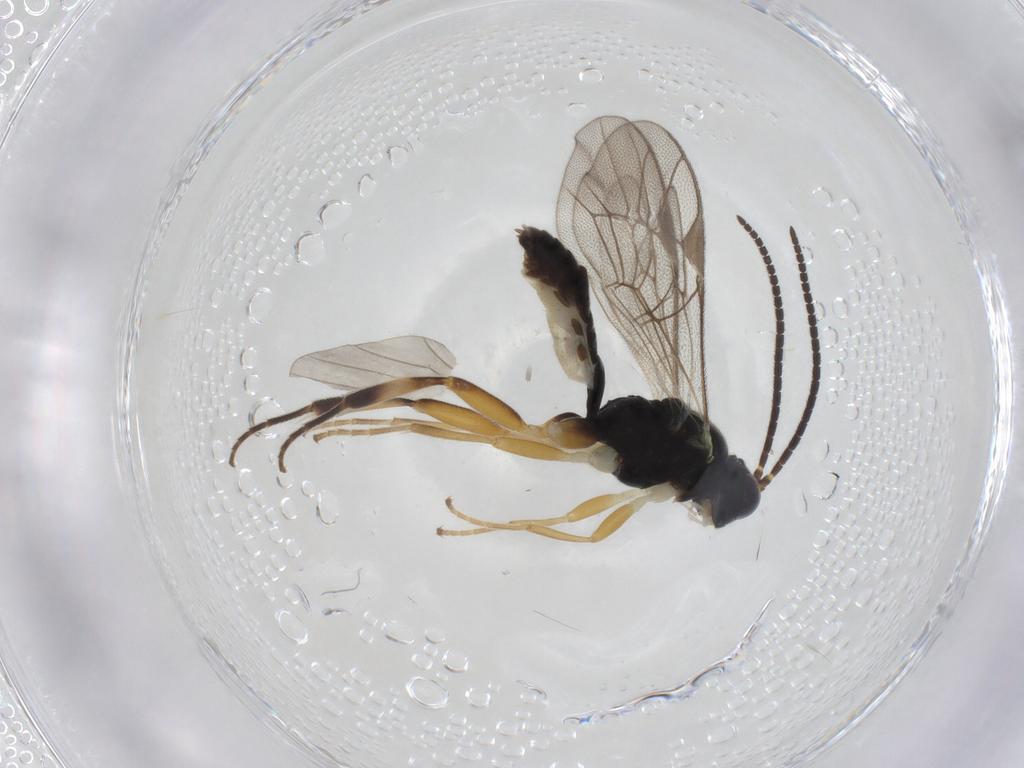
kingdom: Animalia
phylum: Arthropoda
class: Insecta
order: Hymenoptera
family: Ichneumonidae
